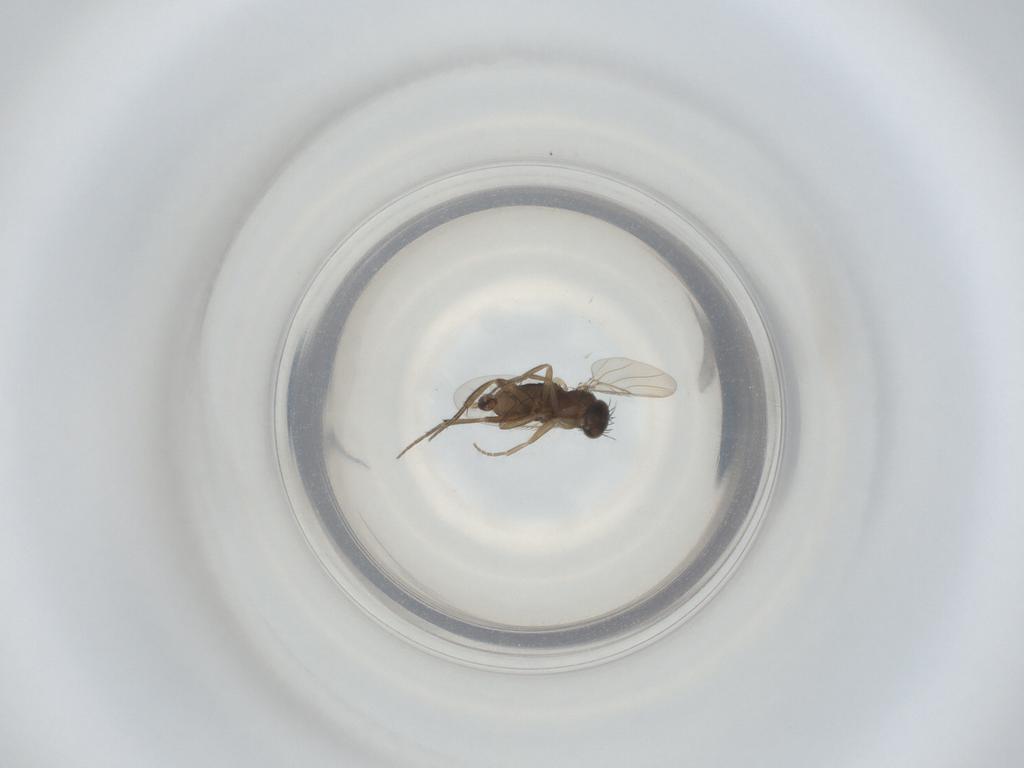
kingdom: Animalia
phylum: Arthropoda
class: Insecta
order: Diptera
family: Phoridae
